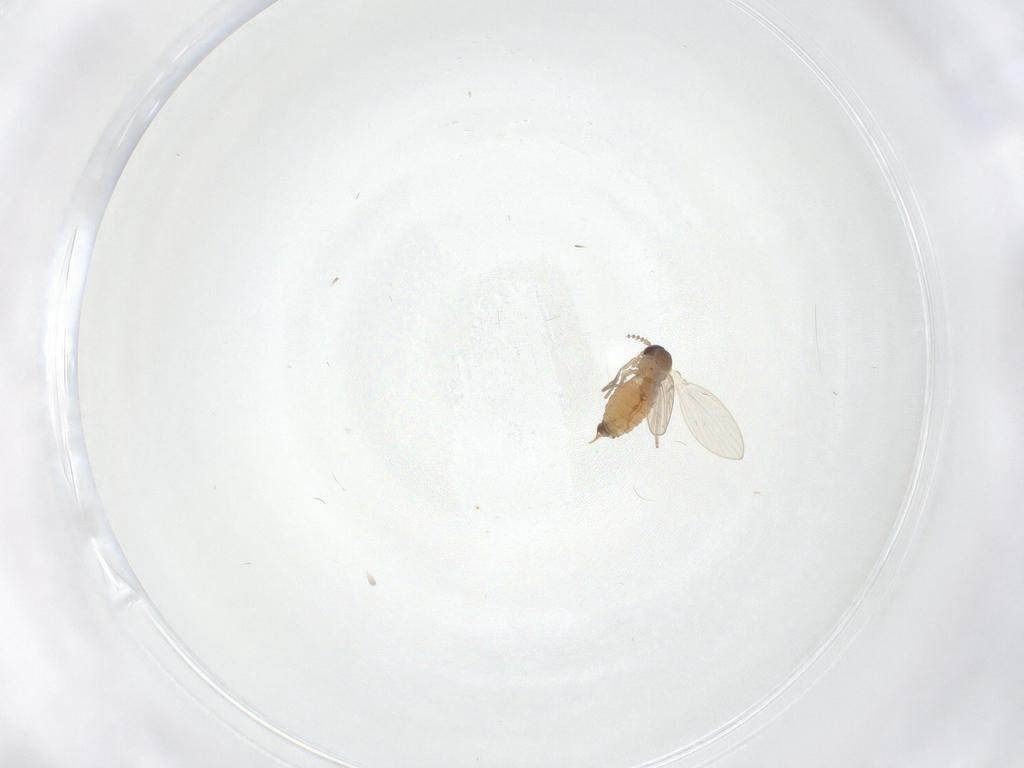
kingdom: Animalia
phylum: Arthropoda
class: Insecta
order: Diptera
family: Psychodidae
